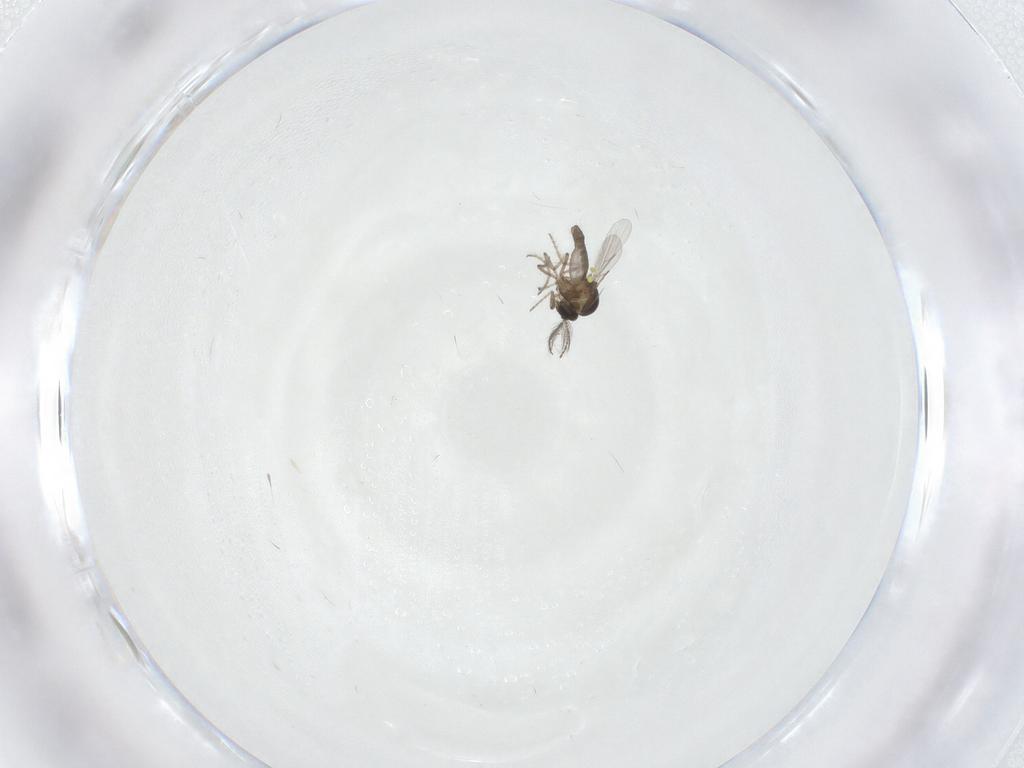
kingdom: Animalia
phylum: Arthropoda
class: Insecta
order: Diptera
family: Ceratopogonidae
